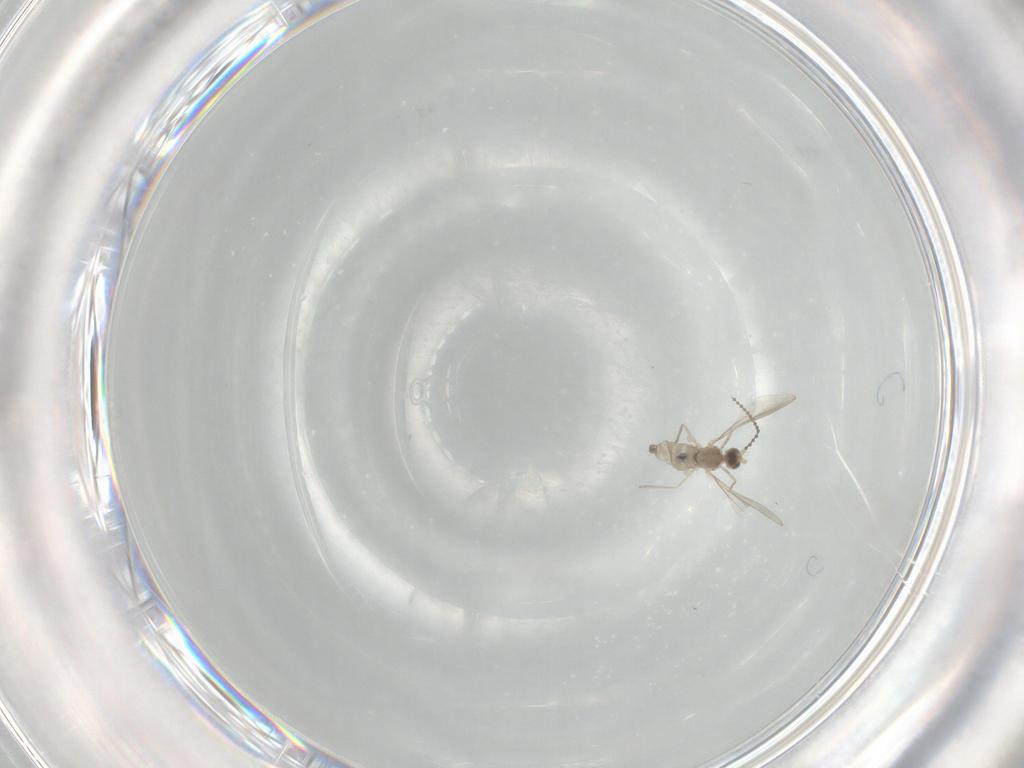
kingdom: Animalia
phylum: Arthropoda
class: Insecta
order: Diptera
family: Cecidomyiidae
